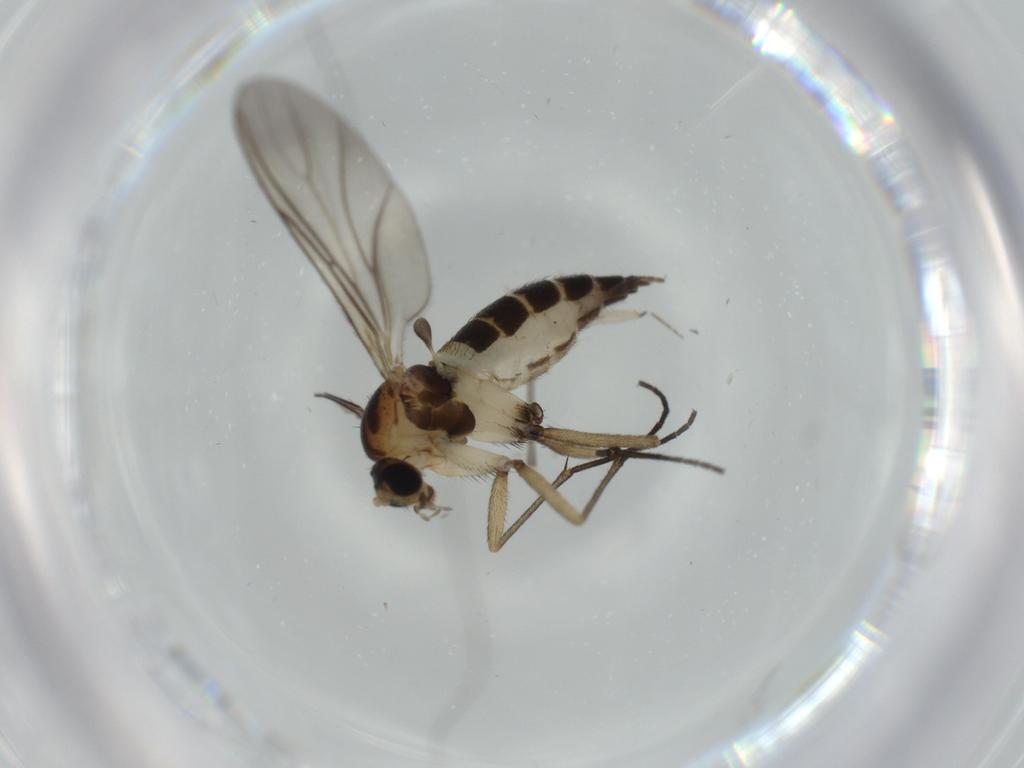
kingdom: Animalia
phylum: Arthropoda
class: Insecta
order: Diptera
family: Sciaridae
